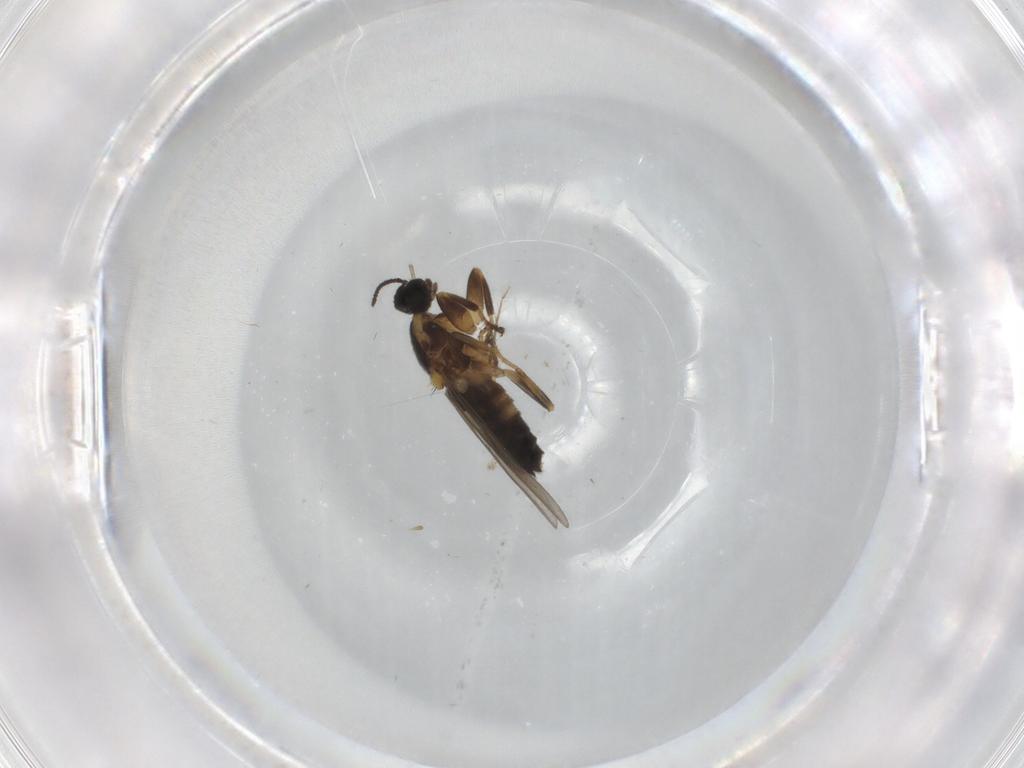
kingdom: Animalia
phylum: Arthropoda
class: Insecta
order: Diptera
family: Scatopsidae
